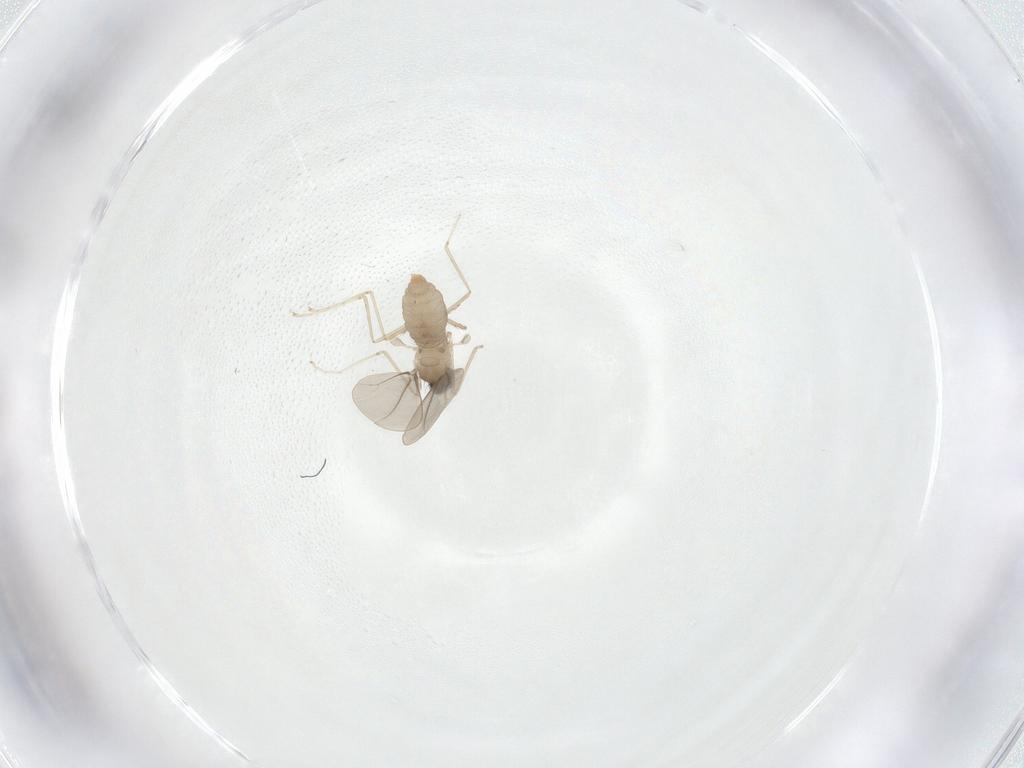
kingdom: Animalia
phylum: Arthropoda
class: Insecta
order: Diptera
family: Cecidomyiidae
